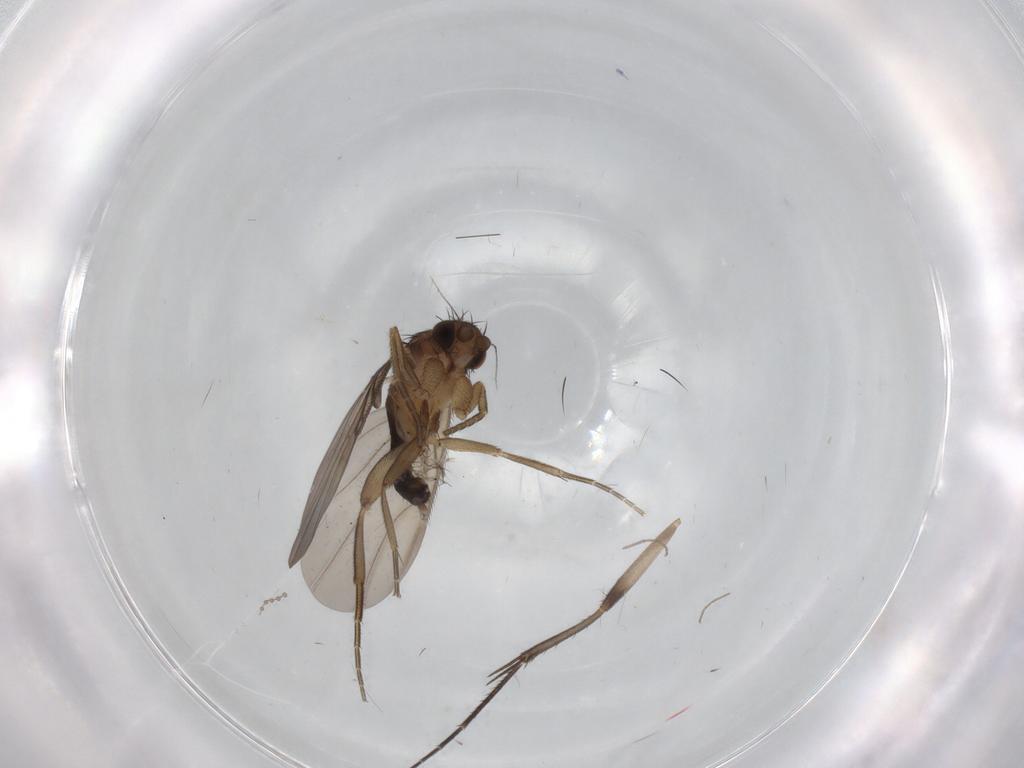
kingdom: Animalia
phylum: Arthropoda
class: Insecta
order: Diptera
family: Phoridae
